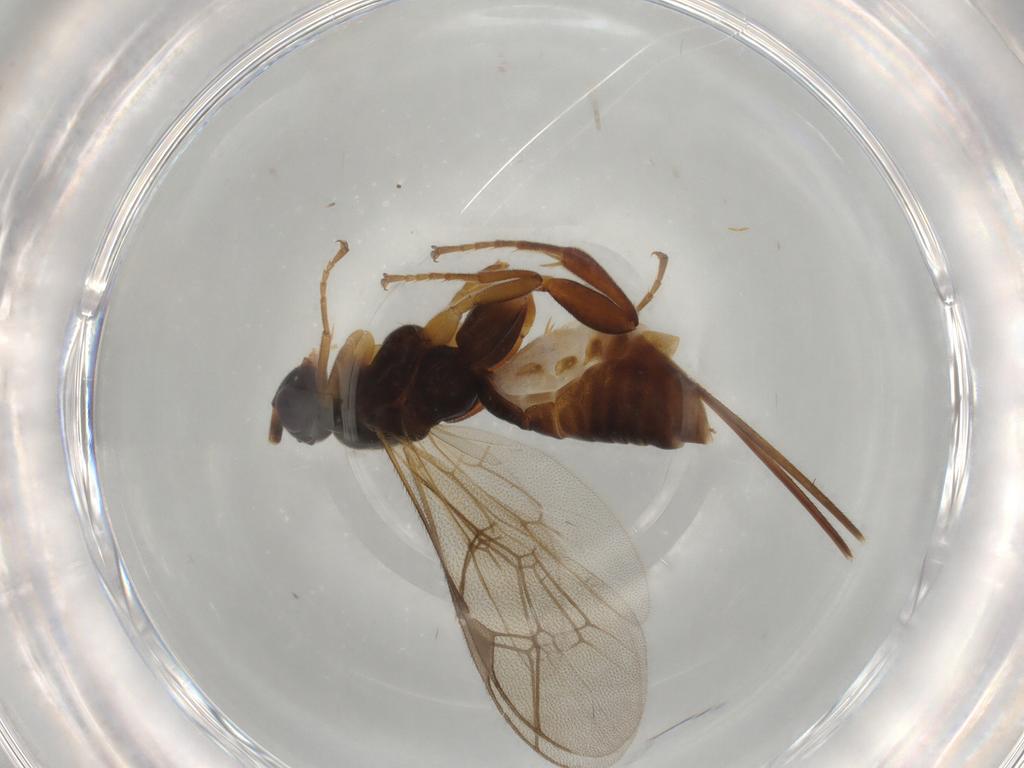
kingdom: Animalia
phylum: Arthropoda
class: Insecta
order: Hymenoptera
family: Ichneumonidae
